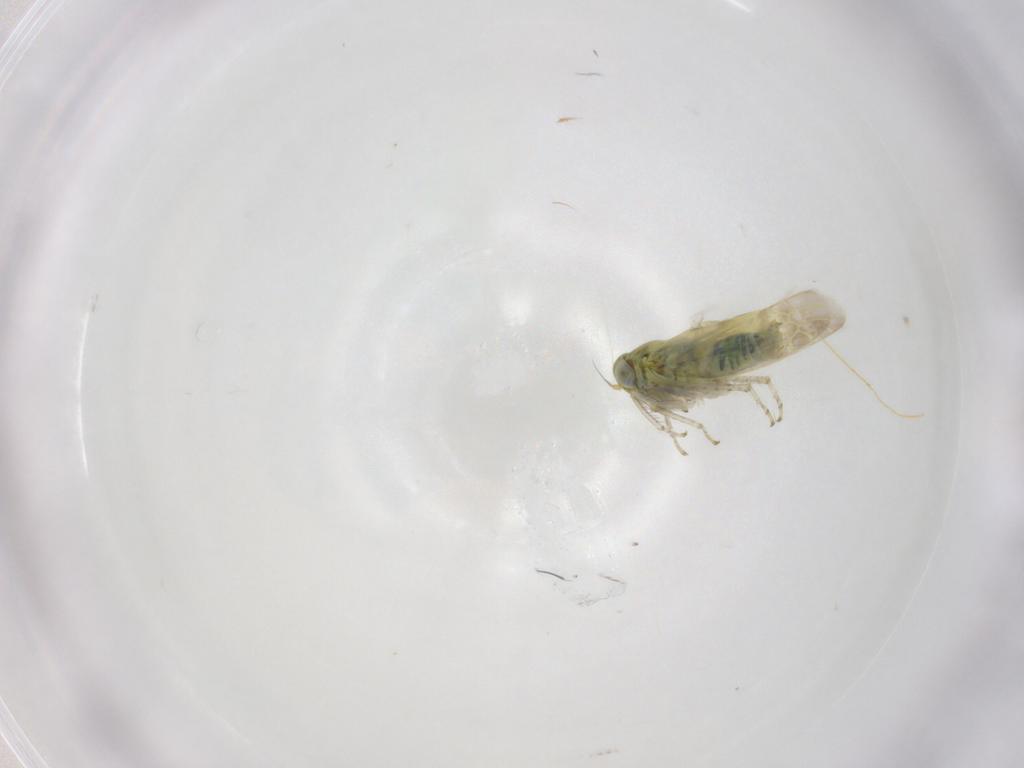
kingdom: Animalia
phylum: Arthropoda
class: Insecta
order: Hemiptera
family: Cicadellidae
